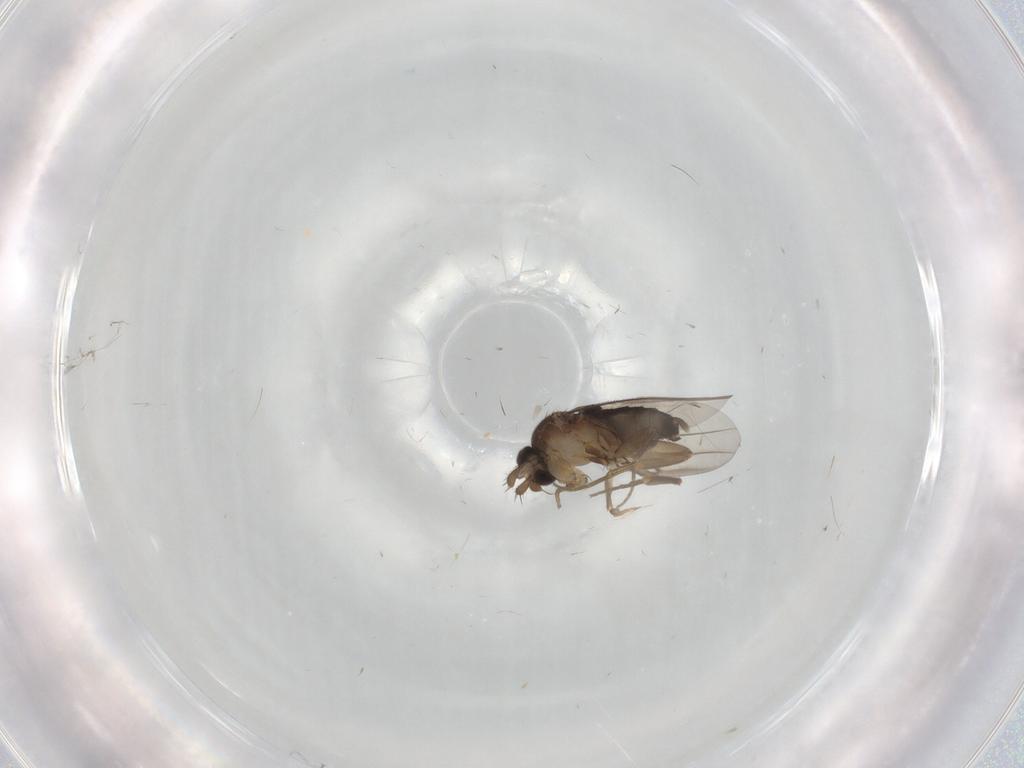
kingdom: Animalia
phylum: Arthropoda
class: Insecta
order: Diptera
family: Phoridae
